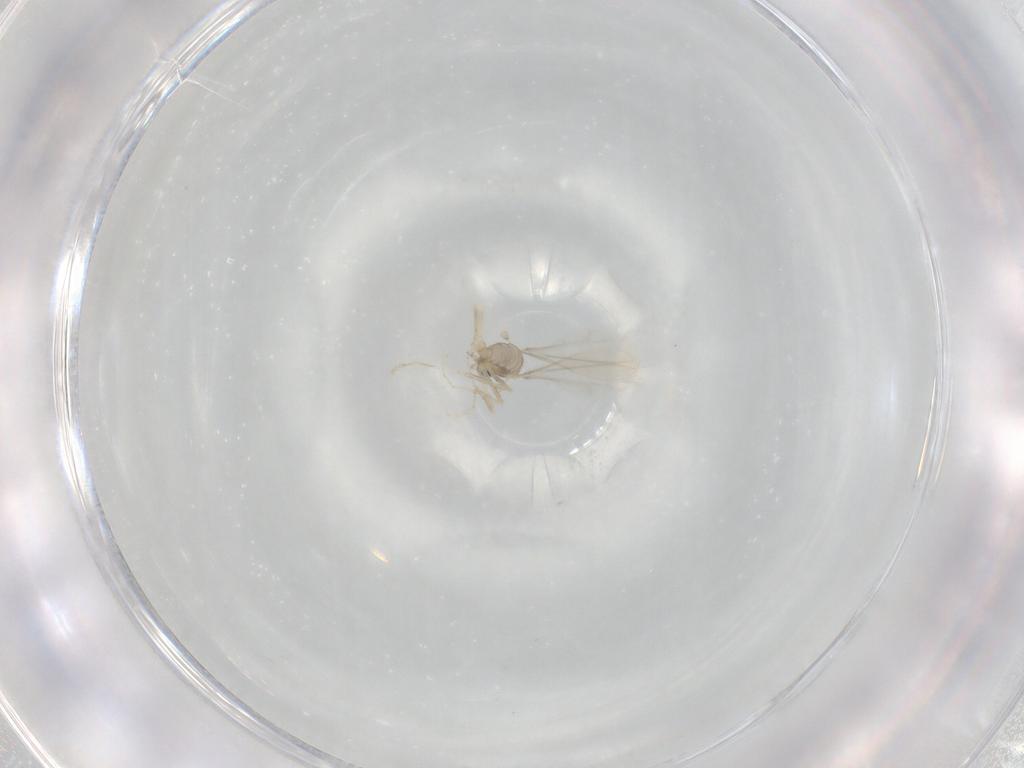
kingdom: Animalia
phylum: Arthropoda
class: Insecta
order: Diptera
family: Cecidomyiidae
